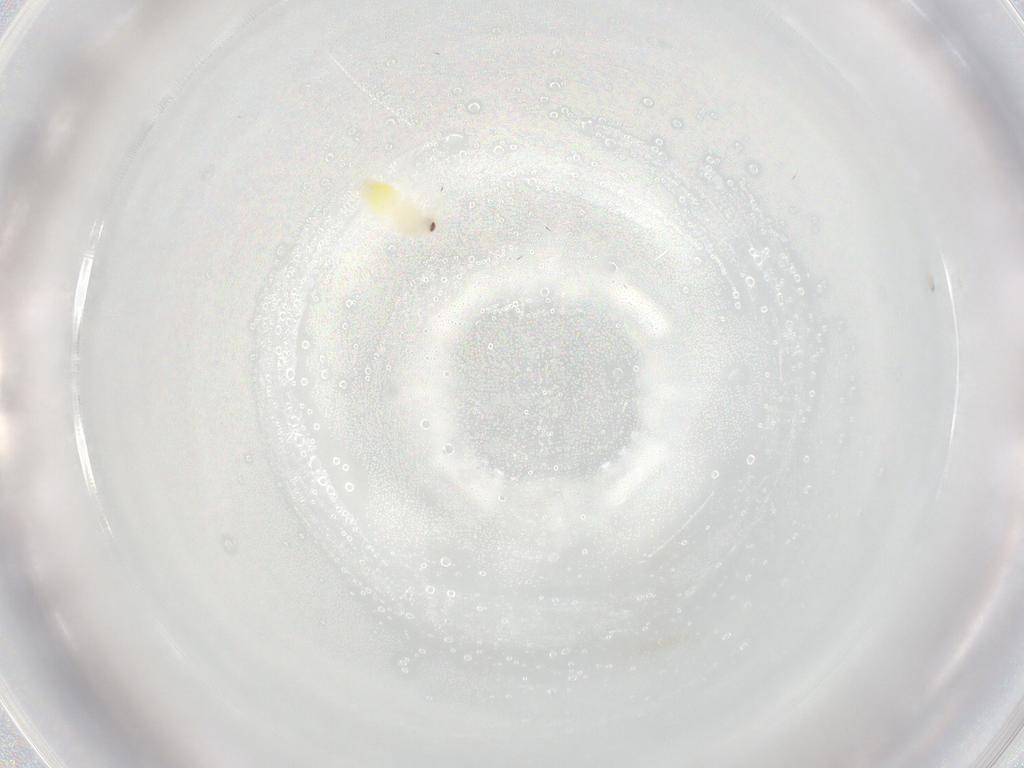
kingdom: Animalia
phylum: Arthropoda
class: Insecta
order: Hemiptera
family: Aleyrodidae
